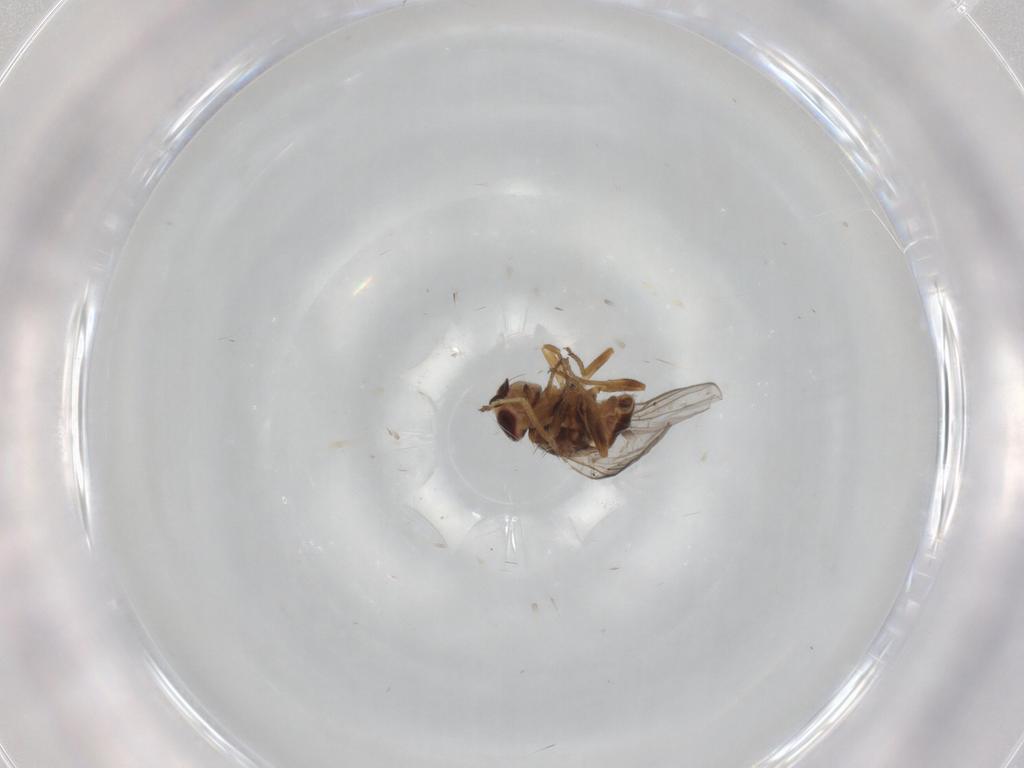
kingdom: Animalia
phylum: Arthropoda
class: Insecta
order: Diptera
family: Chloropidae
